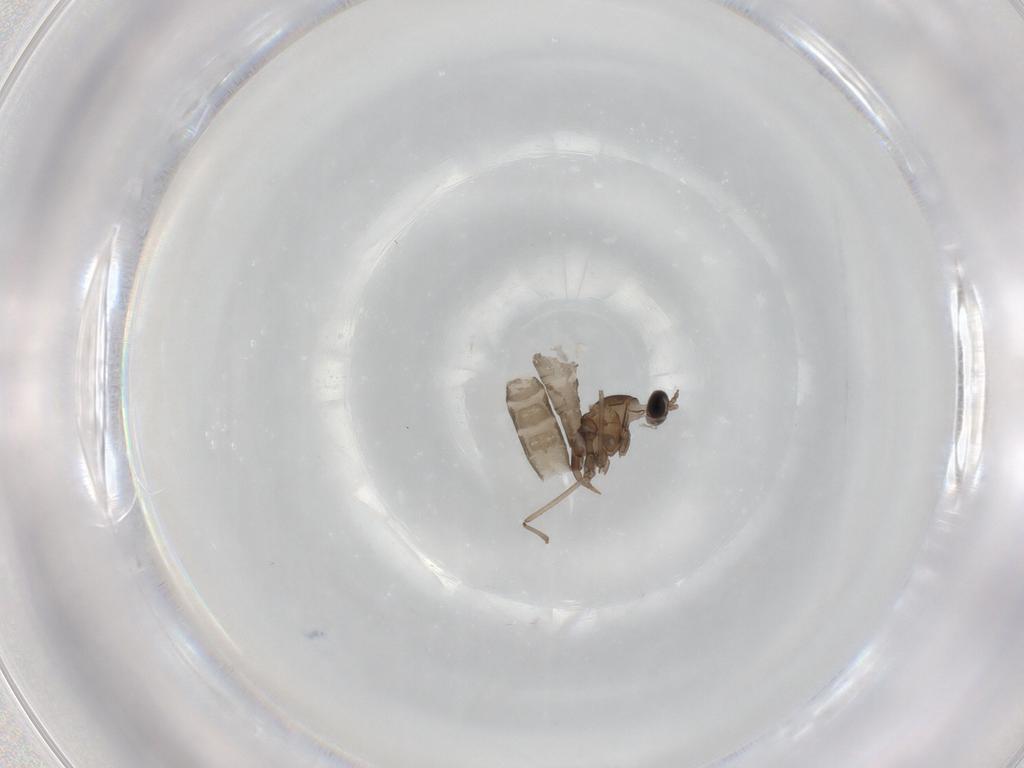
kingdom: Animalia
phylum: Arthropoda
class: Insecta
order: Diptera
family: Cecidomyiidae
